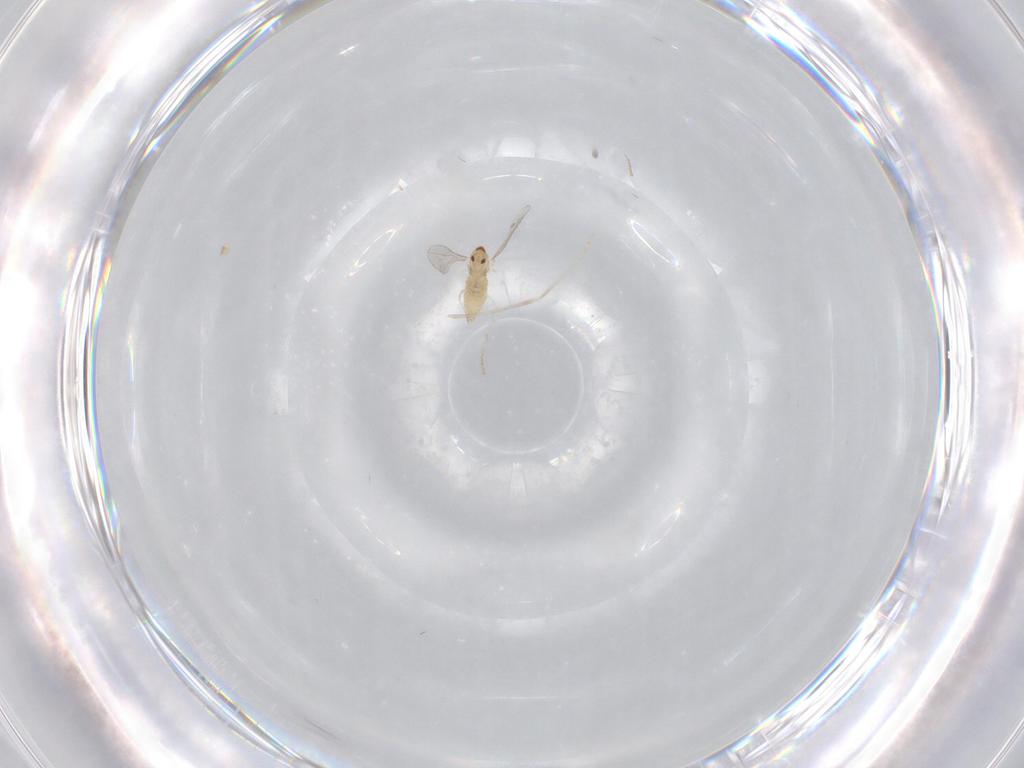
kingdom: Animalia
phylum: Arthropoda
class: Insecta
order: Diptera
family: Cecidomyiidae
